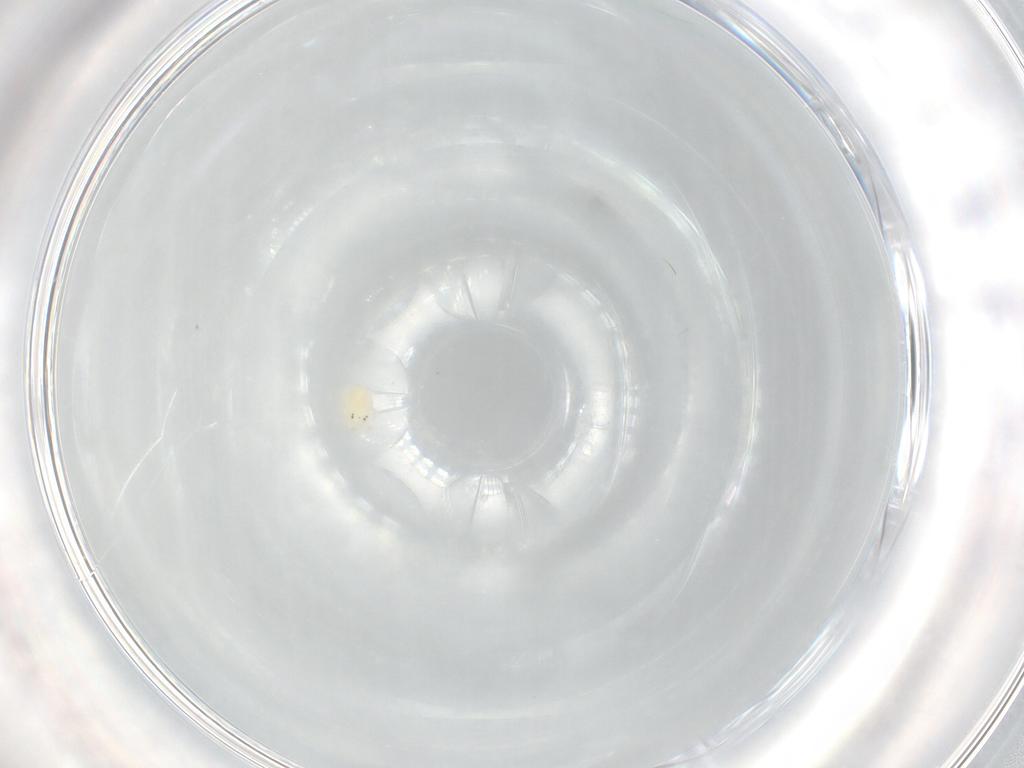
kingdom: Animalia
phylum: Arthropoda
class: Arachnida
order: Trombidiformes
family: Hydryphantidae
